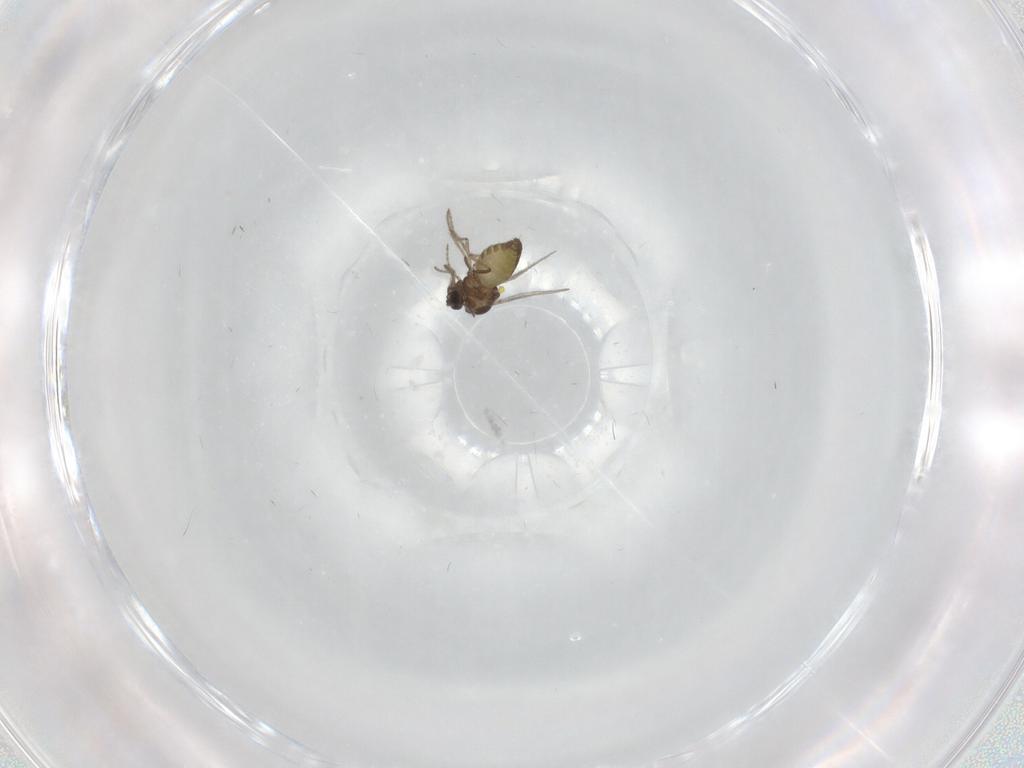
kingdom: Animalia
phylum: Arthropoda
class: Insecta
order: Diptera
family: Ceratopogonidae
